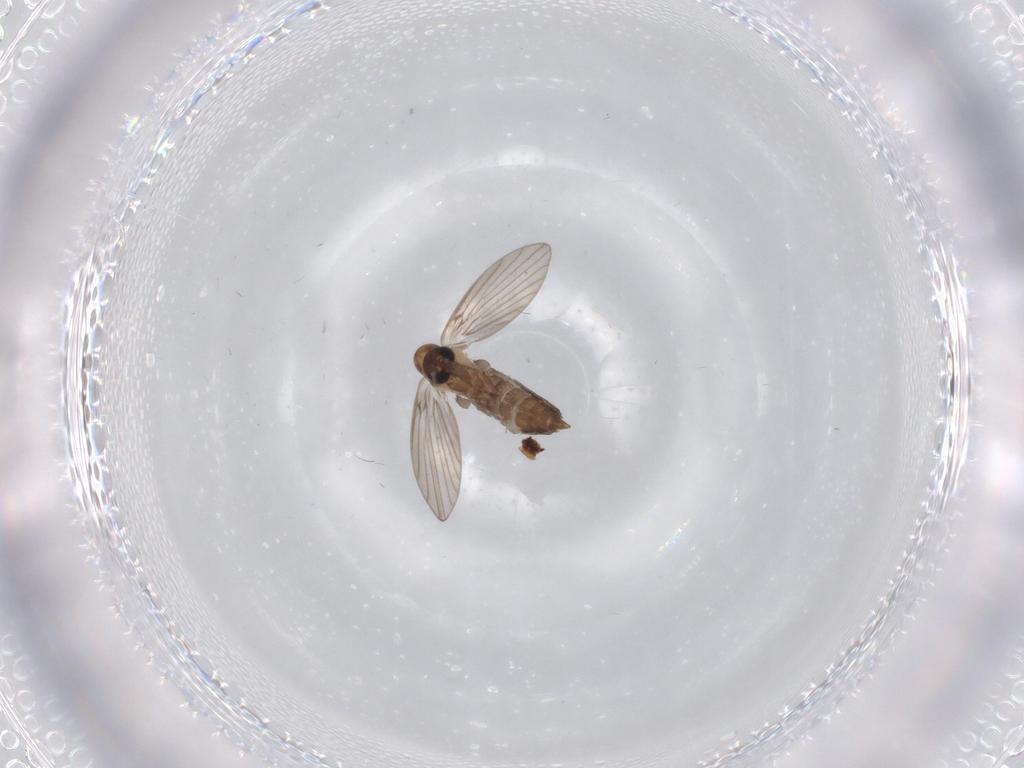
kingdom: Animalia
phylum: Arthropoda
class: Insecta
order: Diptera
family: Psychodidae
